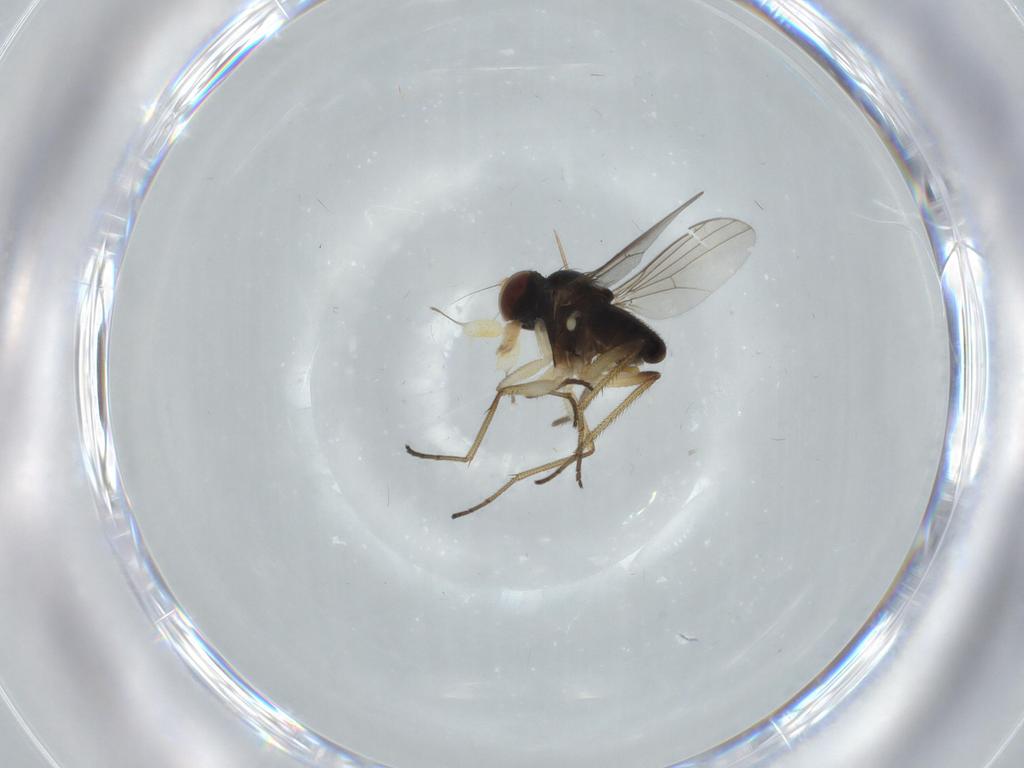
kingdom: Animalia
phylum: Arthropoda
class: Insecta
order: Diptera
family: Dolichopodidae
